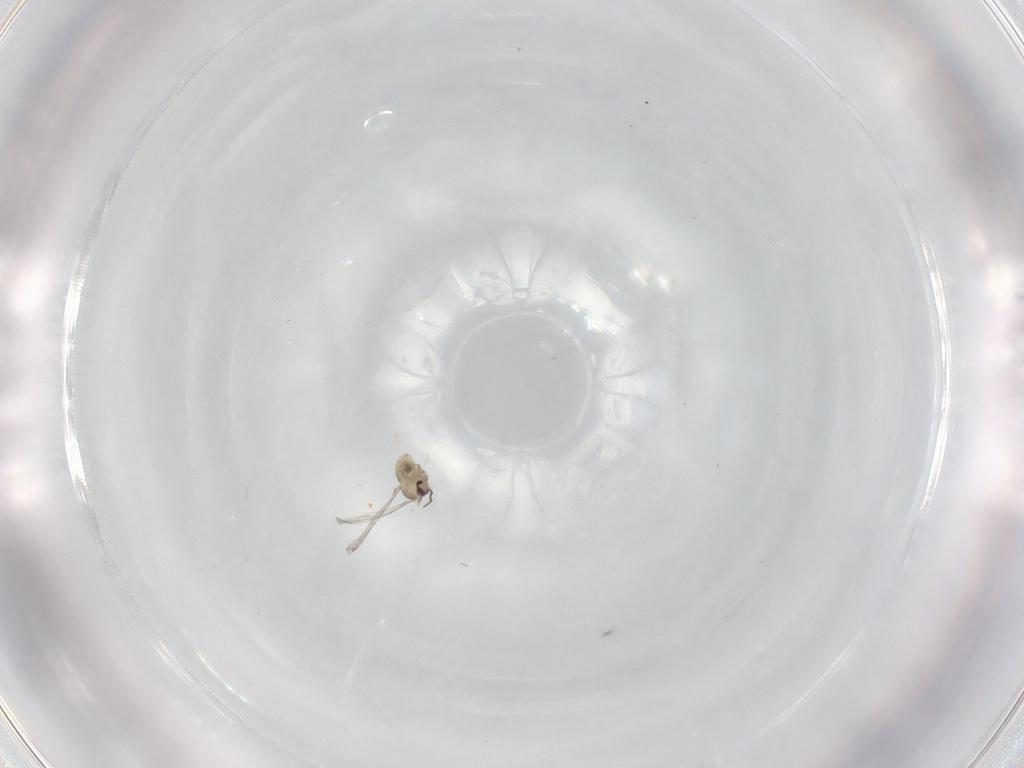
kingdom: Animalia
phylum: Arthropoda
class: Insecta
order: Diptera
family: Cecidomyiidae
